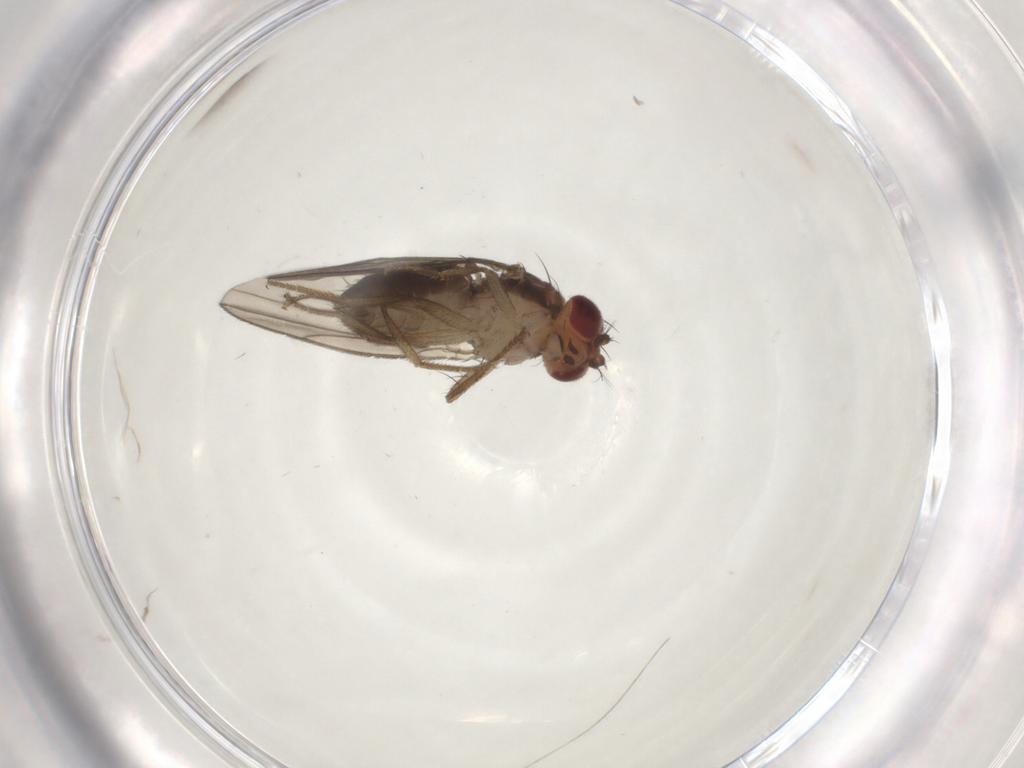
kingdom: Animalia
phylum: Arthropoda
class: Insecta
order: Diptera
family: Drosophilidae
